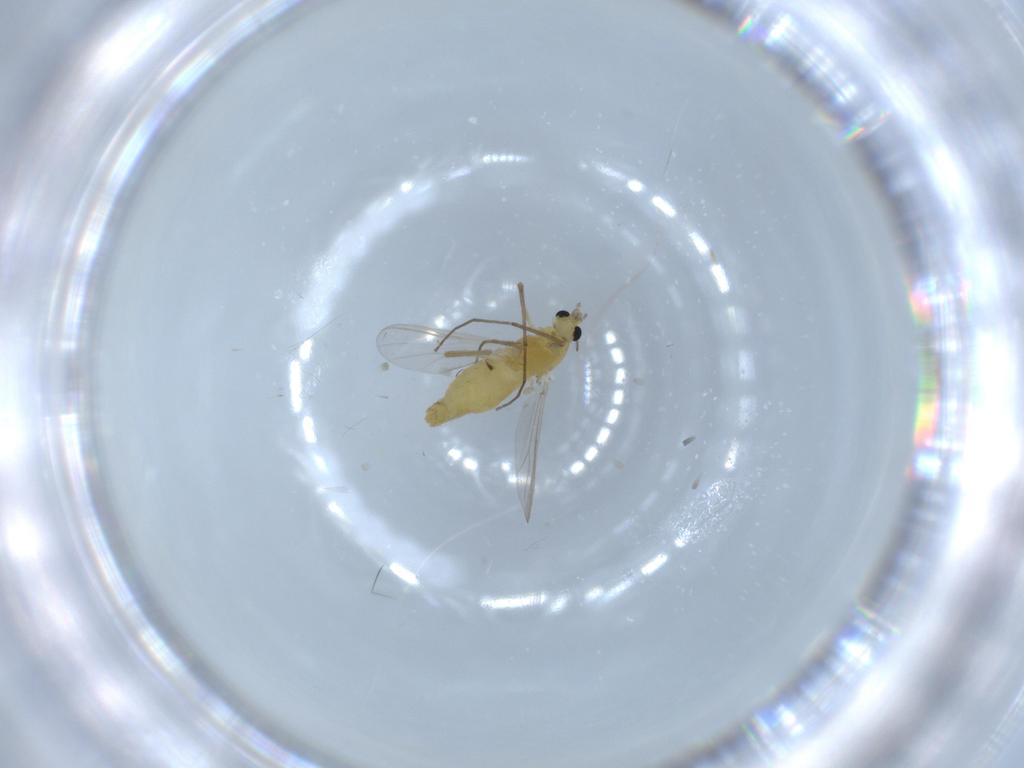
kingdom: Animalia
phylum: Arthropoda
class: Insecta
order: Diptera
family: Chironomidae
